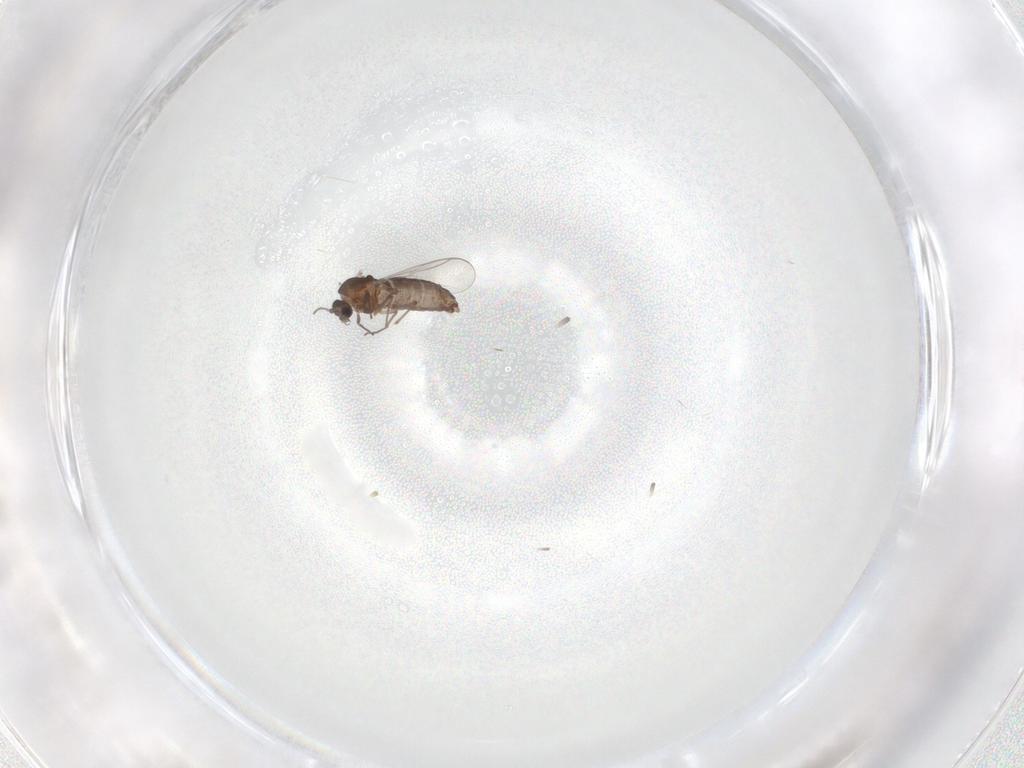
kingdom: Animalia
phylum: Arthropoda
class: Insecta
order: Diptera
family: Chironomidae
